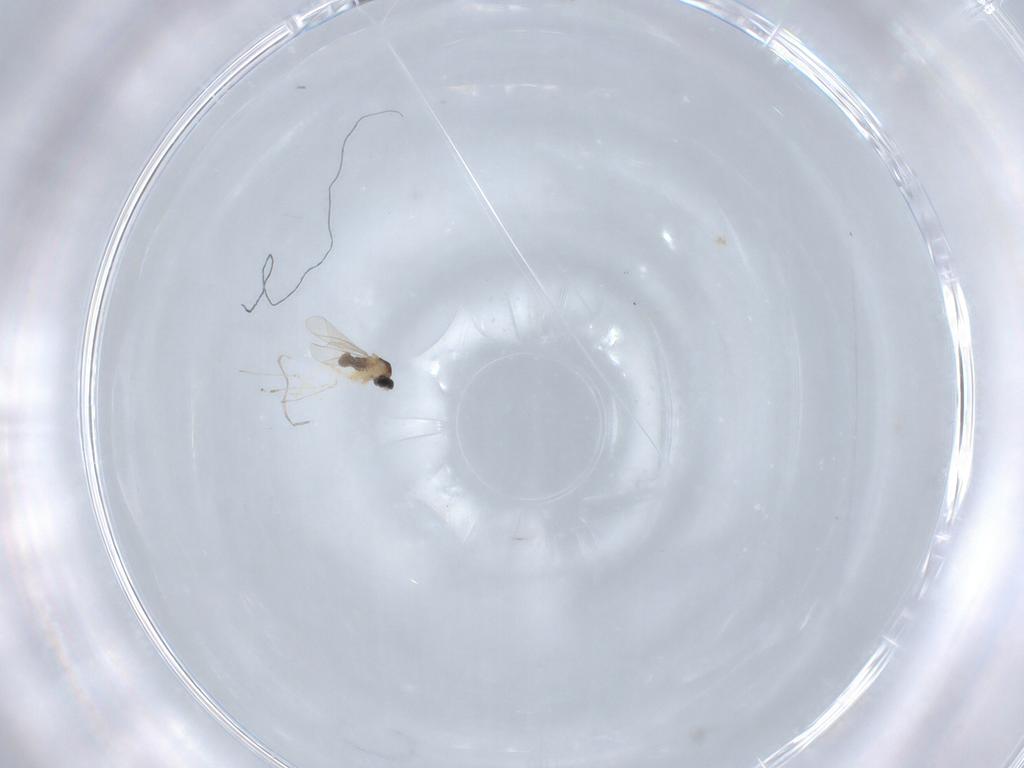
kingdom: Animalia
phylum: Arthropoda
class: Insecta
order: Diptera
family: Cecidomyiidae
